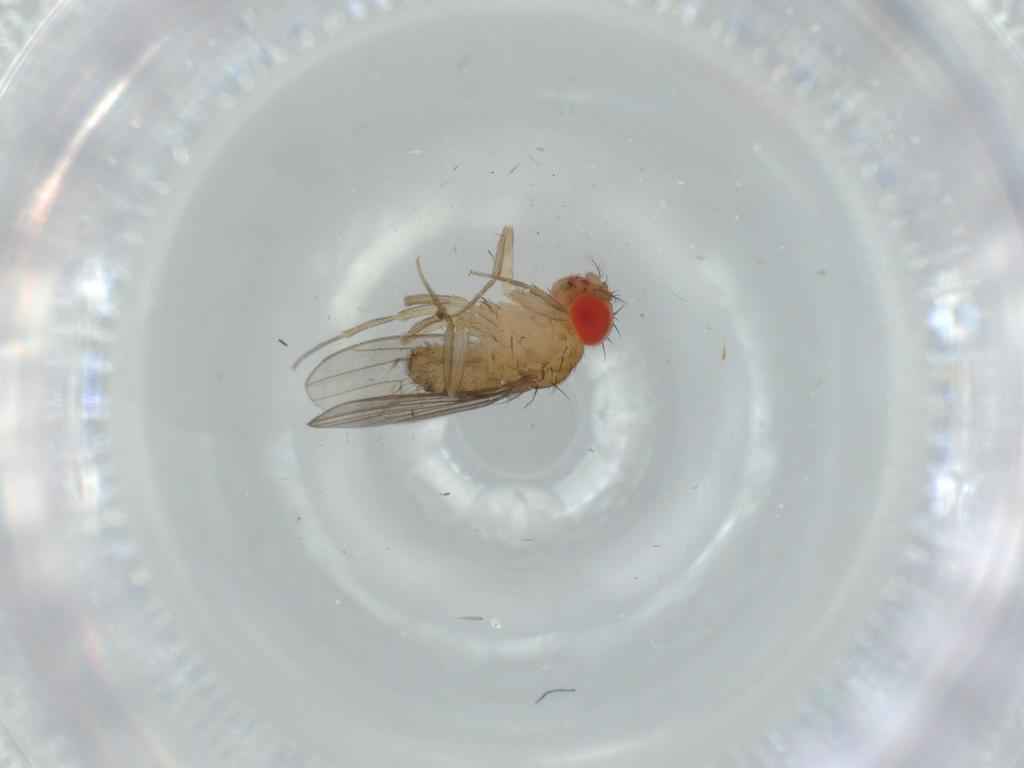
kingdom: Animalia
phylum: Arthropoda
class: Insecta
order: Diptera
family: Drosophilidae
